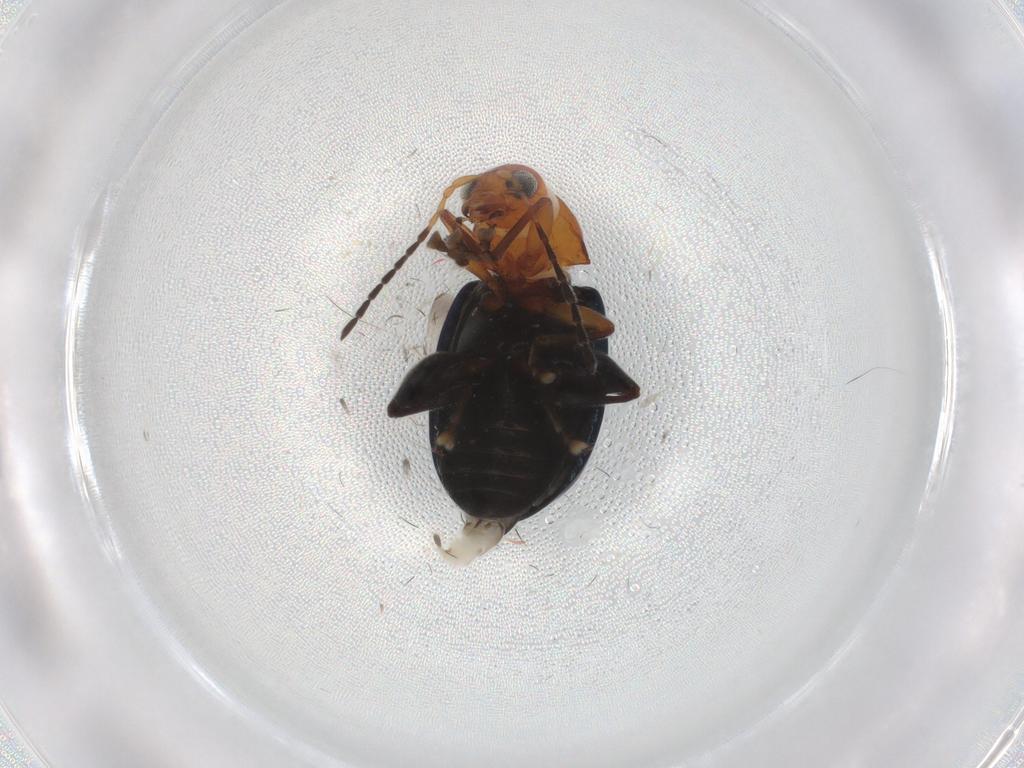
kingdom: Animalia
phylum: Arthropoda
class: Insecta
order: Coleoptera
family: Chrysomelidae
